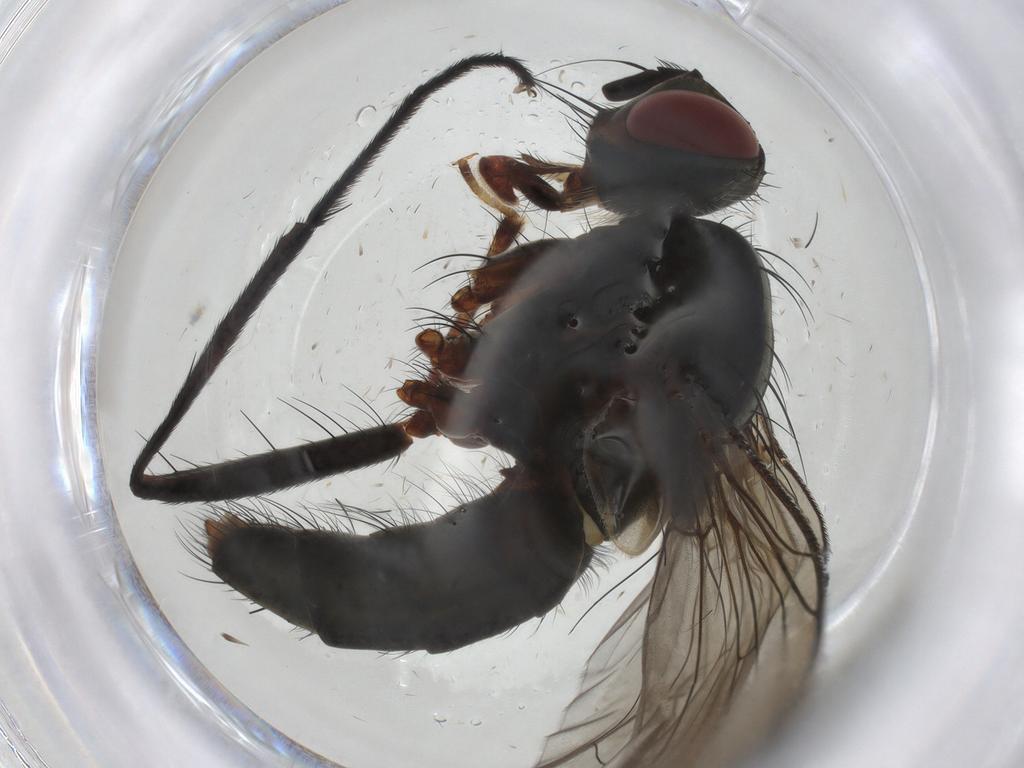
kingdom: Animalia
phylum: Arthropoda
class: Insecta
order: Diptera
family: Tachinidae
